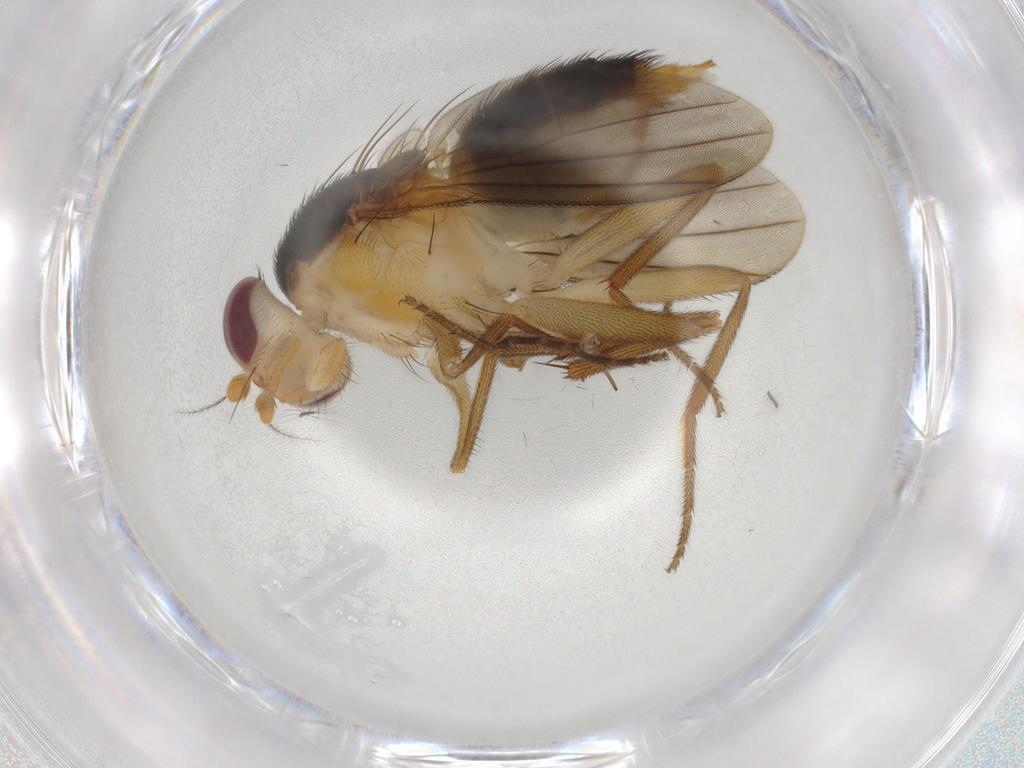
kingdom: Animalia
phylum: Arthropoda
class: Insecta
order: Diptera
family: Chironomidae
